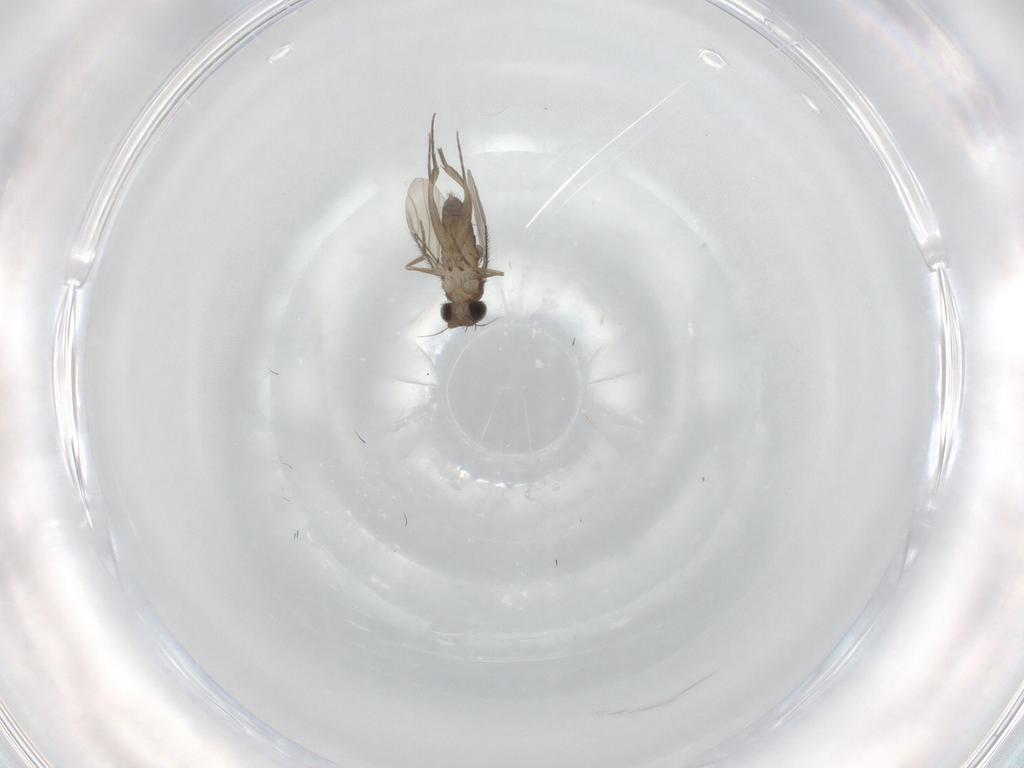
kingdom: Animalia
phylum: Arthropoda
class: Insecta
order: Diptera
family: Phoridae
